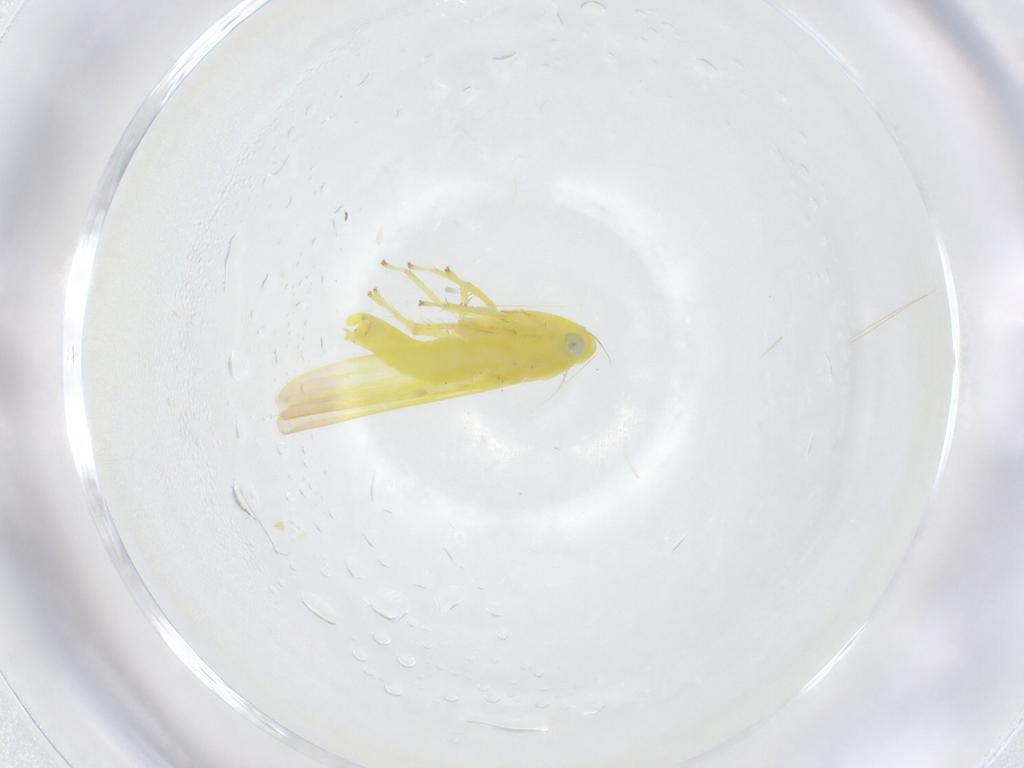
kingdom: Animalia
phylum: Arthropoda
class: Insecta
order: Hemiptera
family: Cicadellidae
